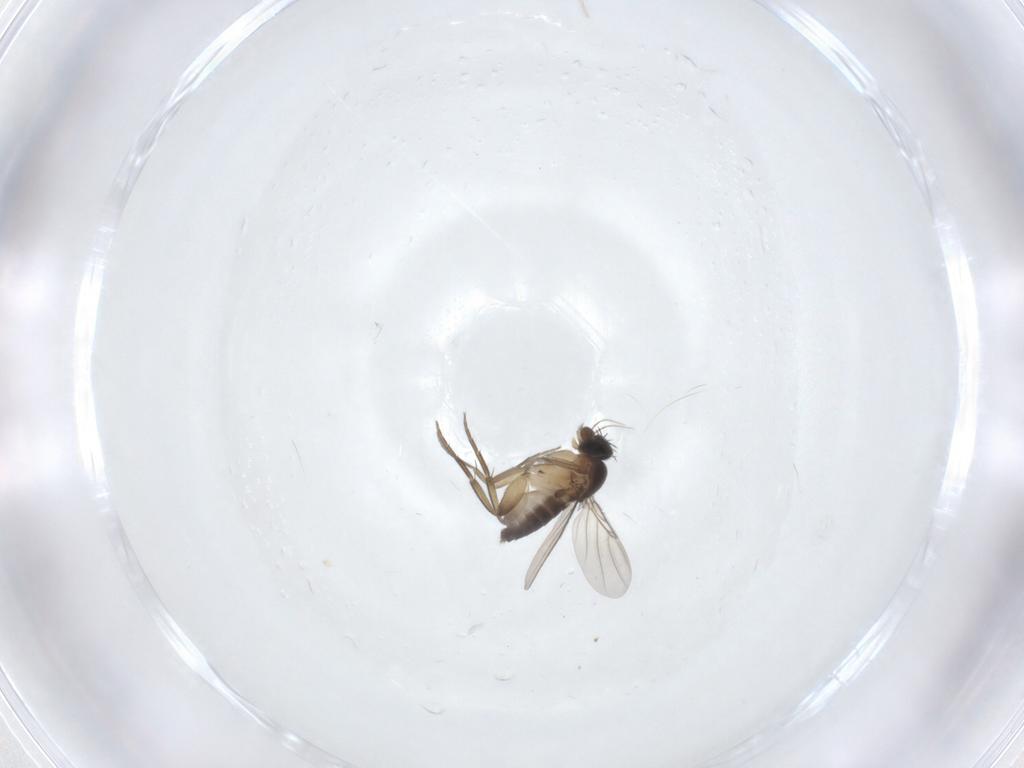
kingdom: Animalia
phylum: Arthropoda
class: Insecta
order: Diptera
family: Phoridae
